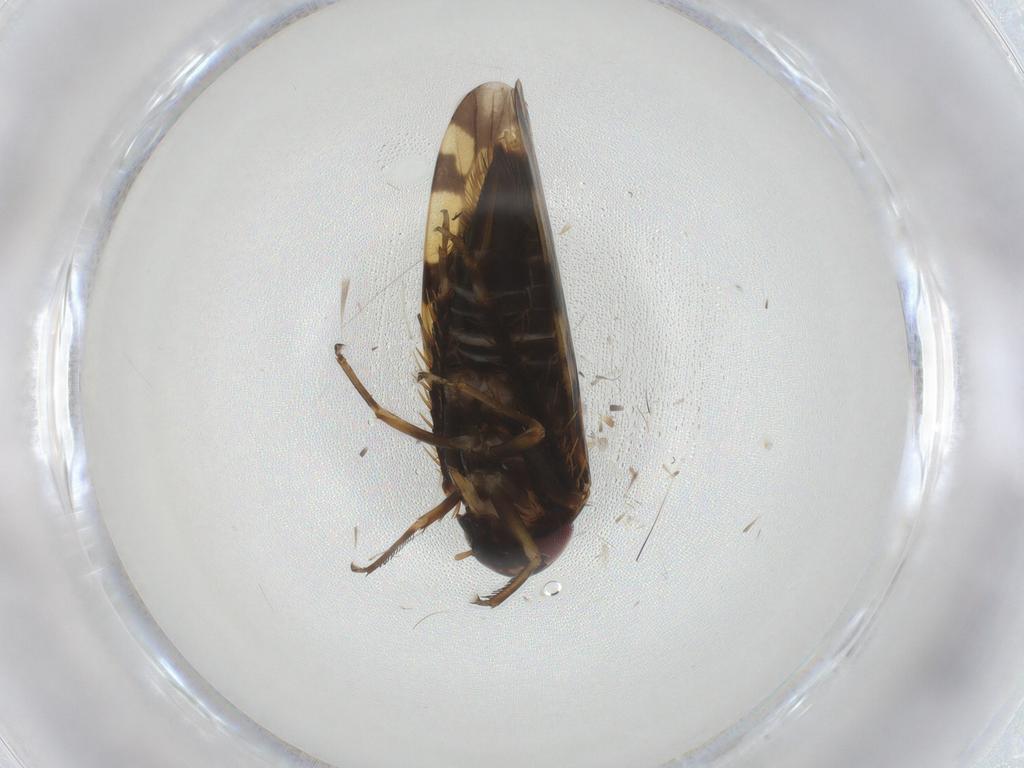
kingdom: Animalia
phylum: Arthropoda
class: Insecta
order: Hemiptera
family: Cicadellidae
